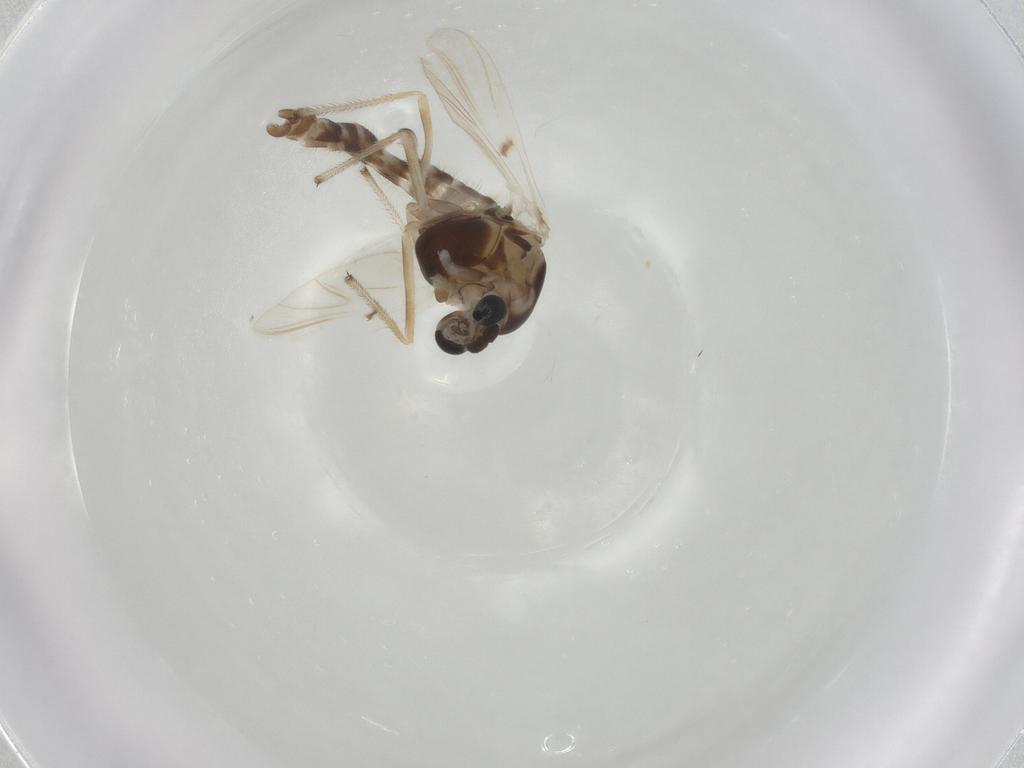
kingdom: Animalia
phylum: Arthropoda
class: Insecta
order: Diptera
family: Chironomidae
